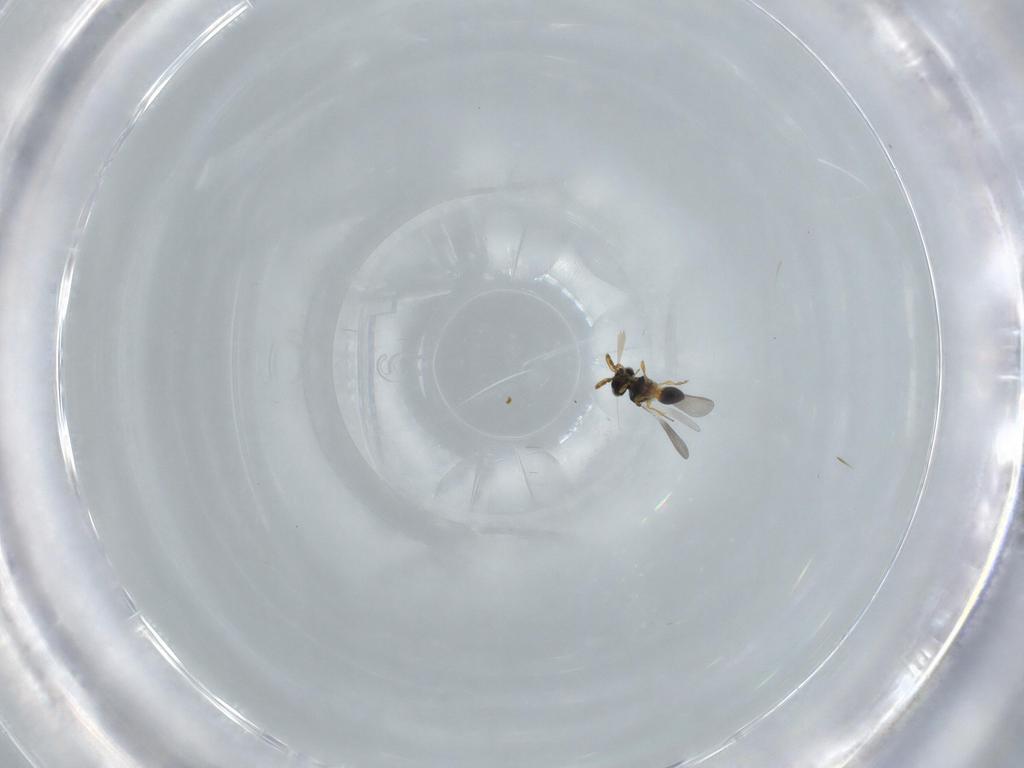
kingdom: Animalia
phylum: Arthropoda
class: Insecta
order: Hymenoptera
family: Platygastridae
